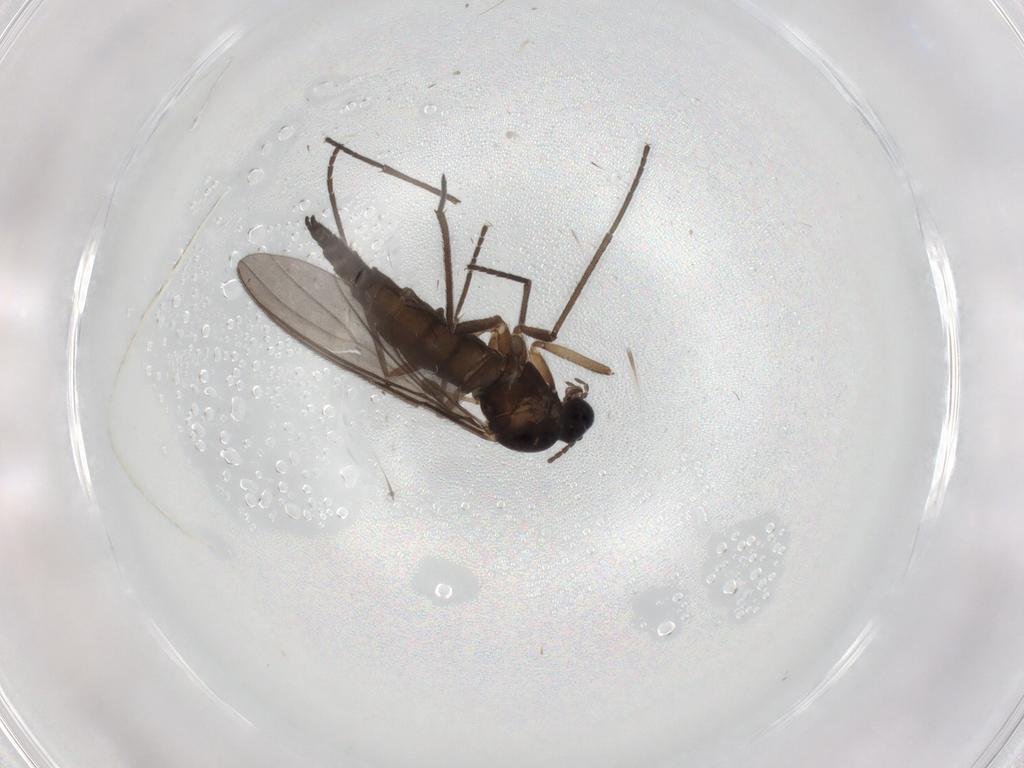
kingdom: Animalia
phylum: Arthropoda
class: Insecta
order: Diptera
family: Sciaridae
